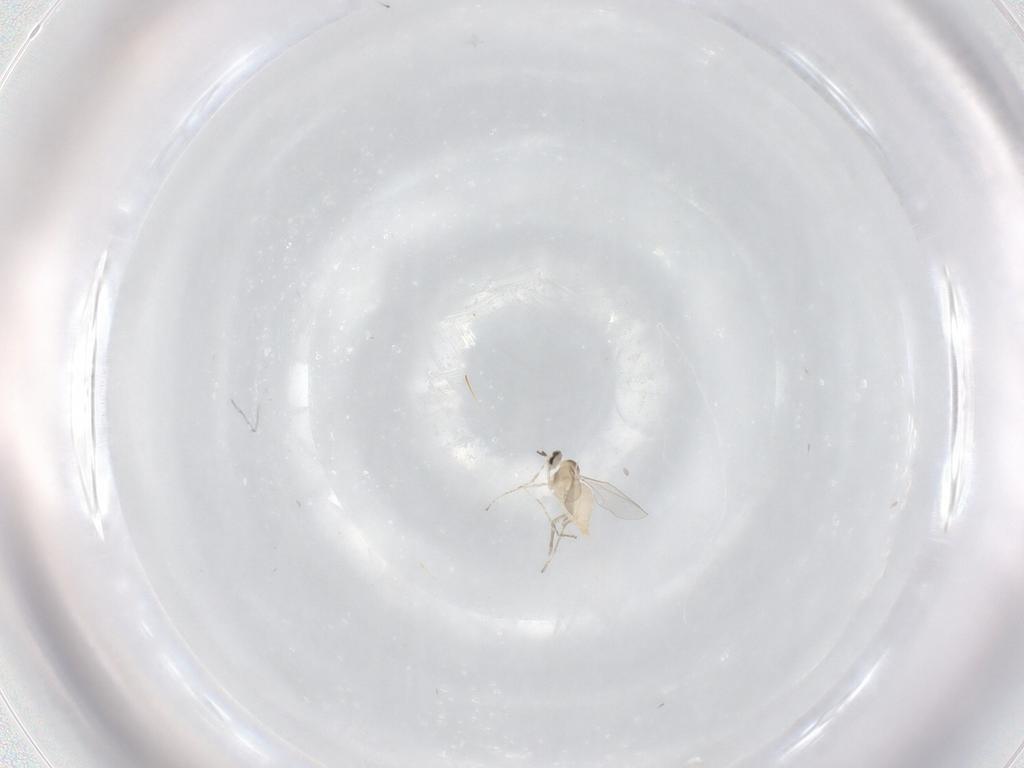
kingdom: Animalia
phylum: Arthropoda
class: Insecta
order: Diptera
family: Cecidomyiidae
